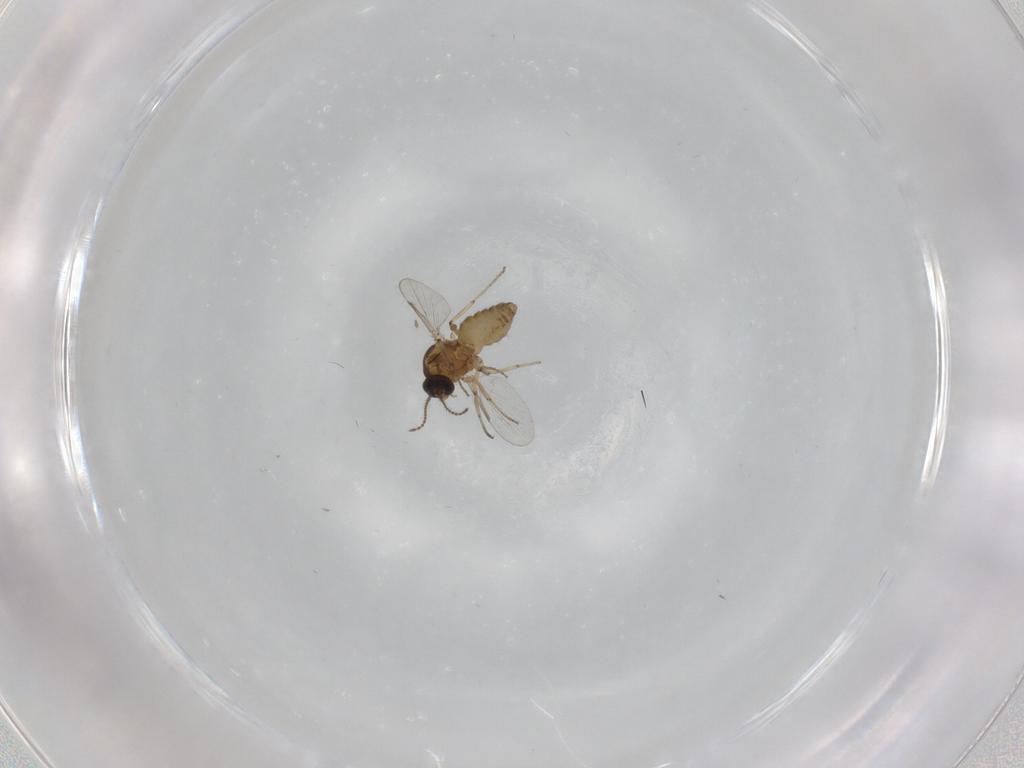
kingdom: Animalia
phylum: Arthropoda
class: Insecta
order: Diptera
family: Ceratopogonidae
